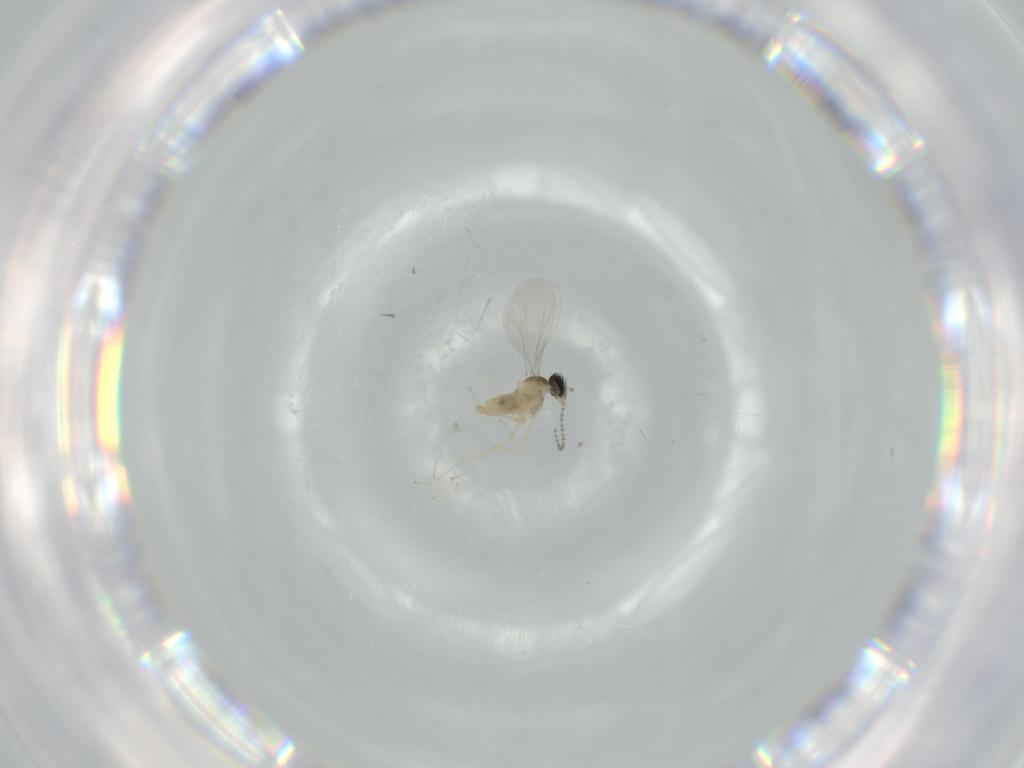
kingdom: Animalia
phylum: Arthropoda
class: Insecta
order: Diptera
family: Cecidomyiidae
